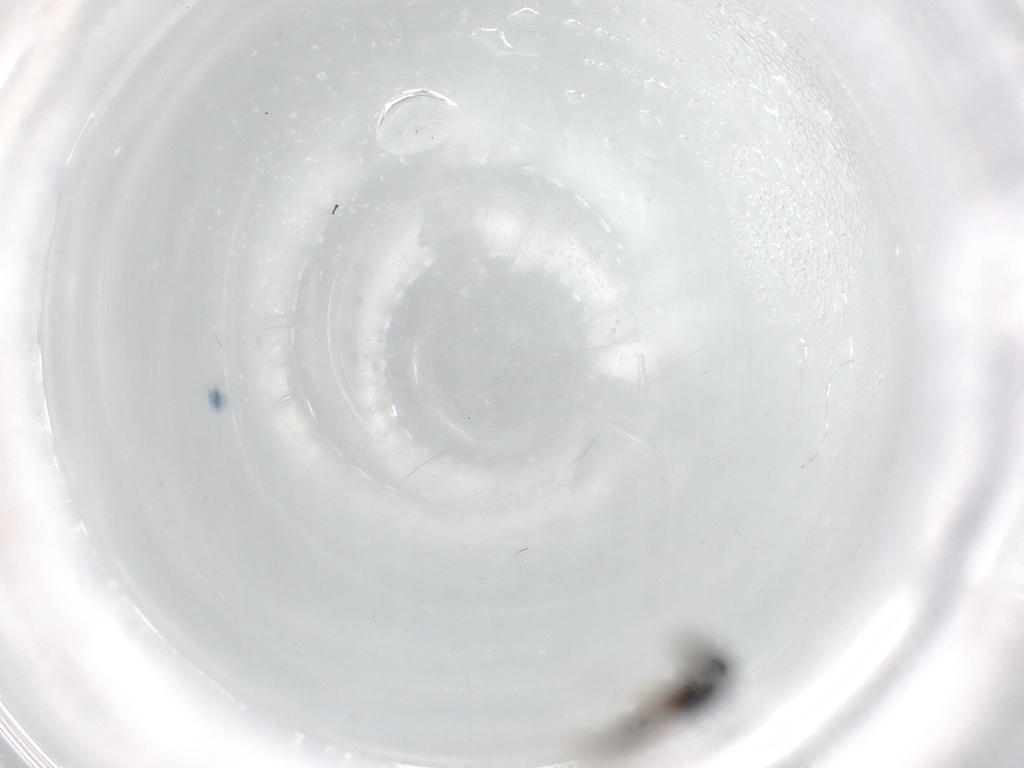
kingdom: Animalia
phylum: Arthropoda
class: Insecta
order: Hymenoptera
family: Platygastridae
